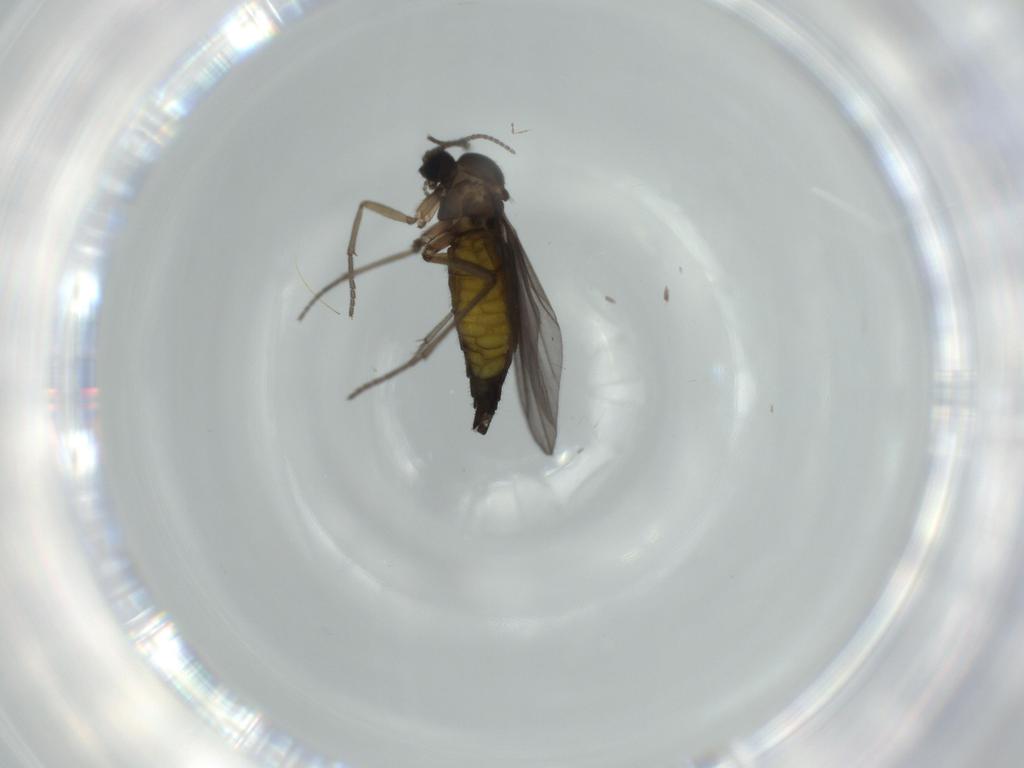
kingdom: Animalia
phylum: Arthropoda
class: Insecta
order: Diptera
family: Sciaridae
